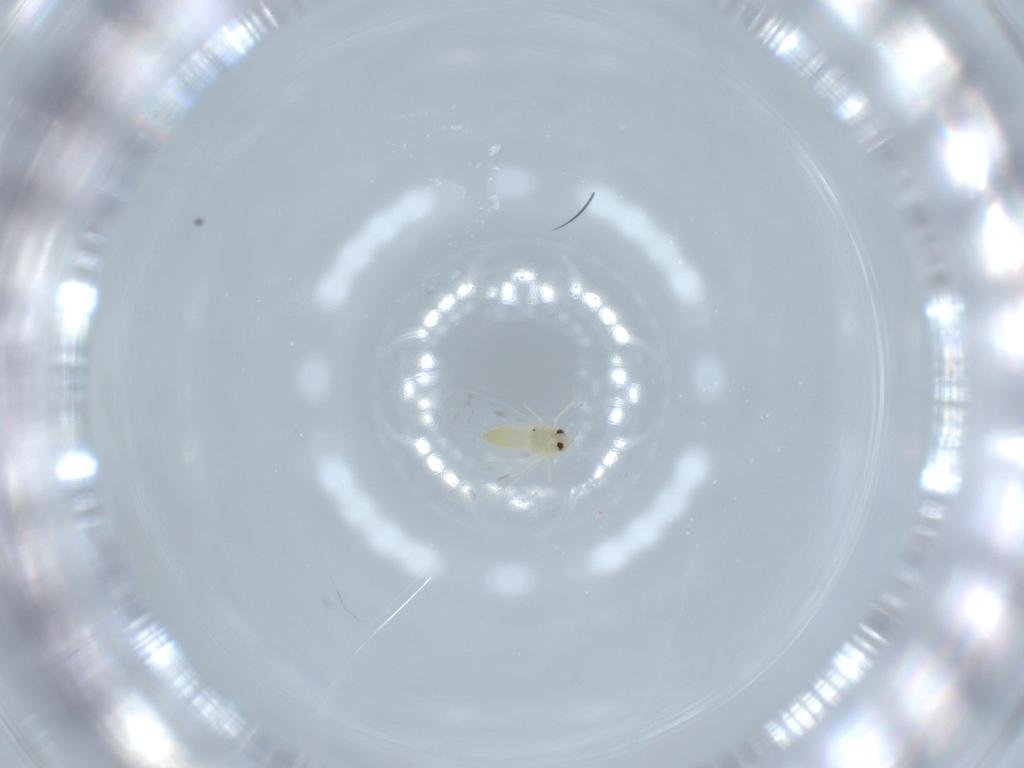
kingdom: Animalia
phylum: Arthropoda
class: Insecta
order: Hemiptera
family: Aleyrodidae
